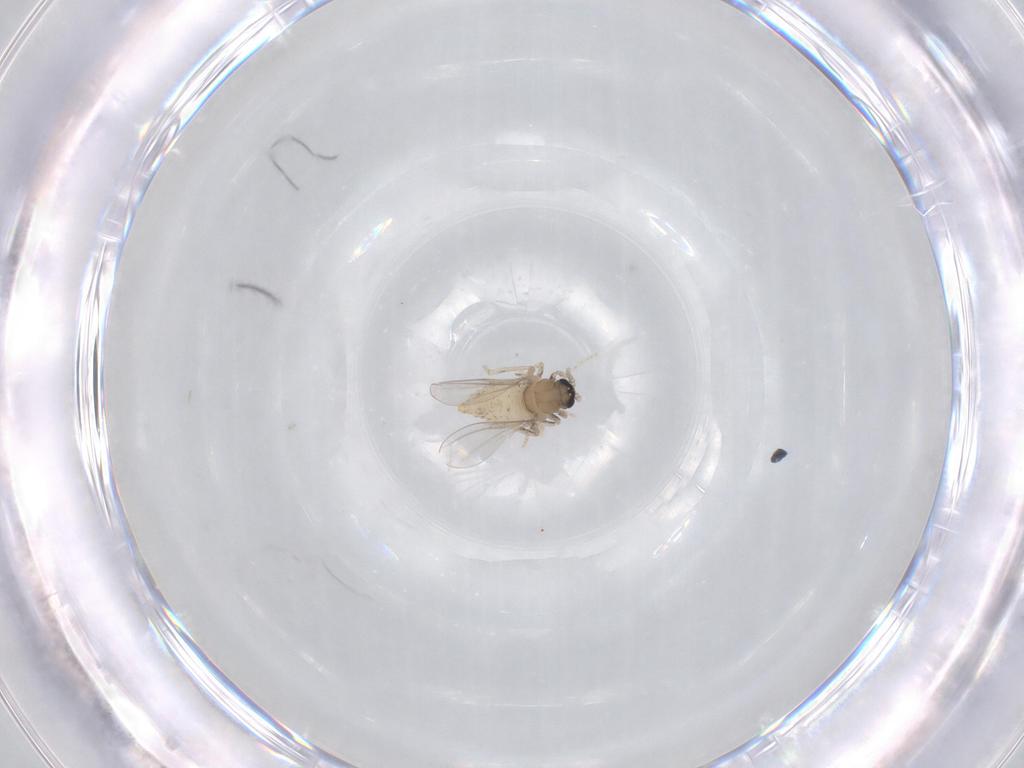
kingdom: Animalia
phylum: Arthropoda
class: Insecta
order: Diptera
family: Cecidomyiidae
